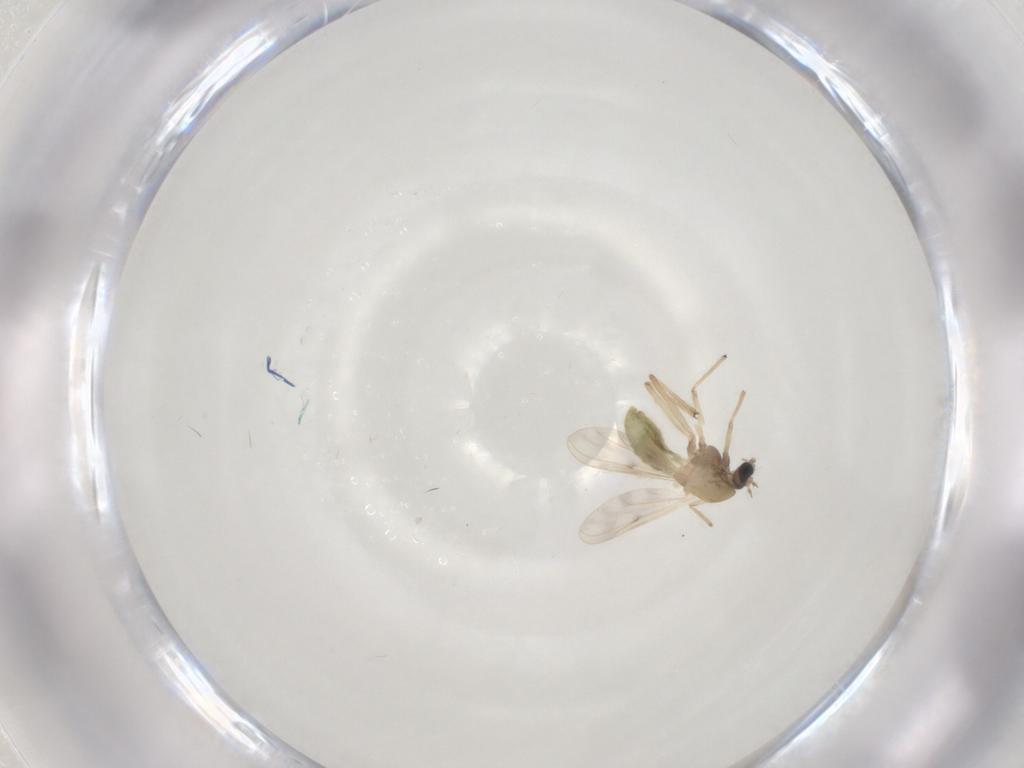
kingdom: Animalia
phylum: Arthropoda
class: Insecta
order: Diptera
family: Chironomidae
